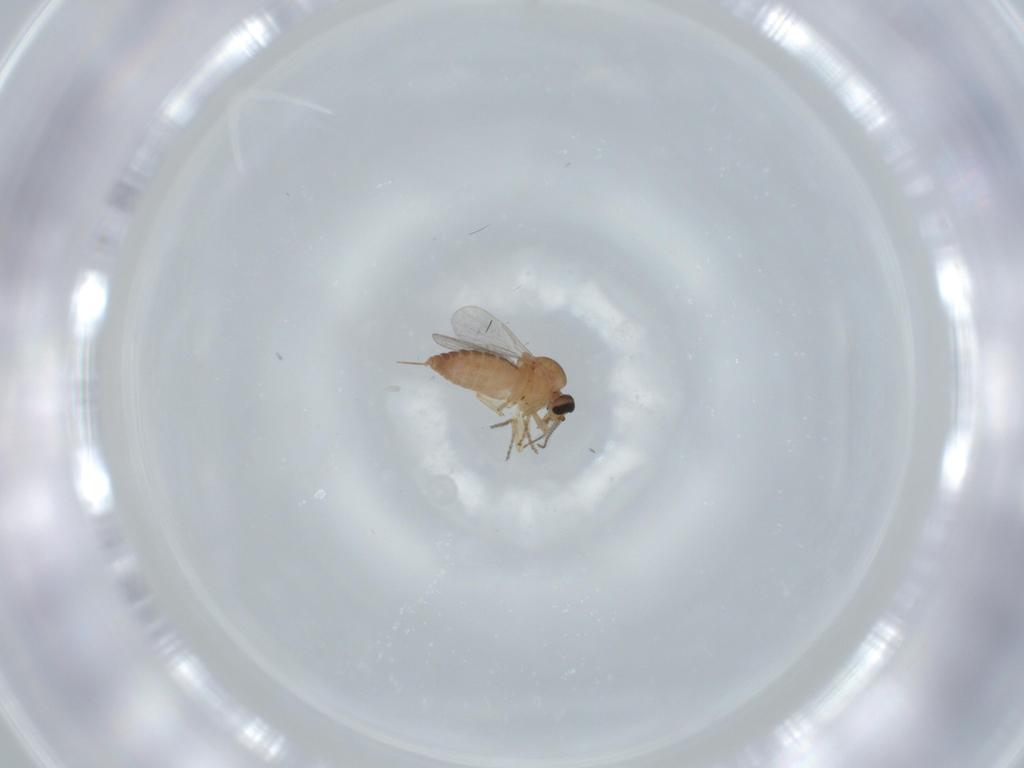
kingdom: Animalia
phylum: Arthropoda
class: Insecta
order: Diptera
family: Ceratopogonidae
